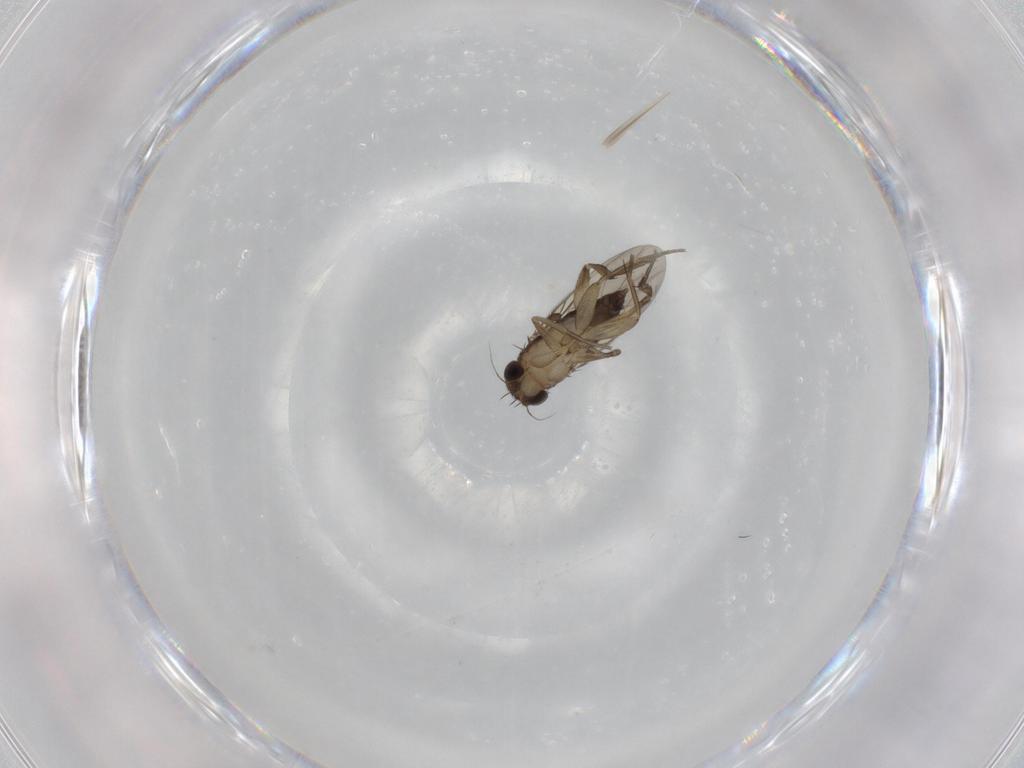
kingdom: Animalia
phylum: Arthropoda
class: Insecta
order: Diptera
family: Phoridae
